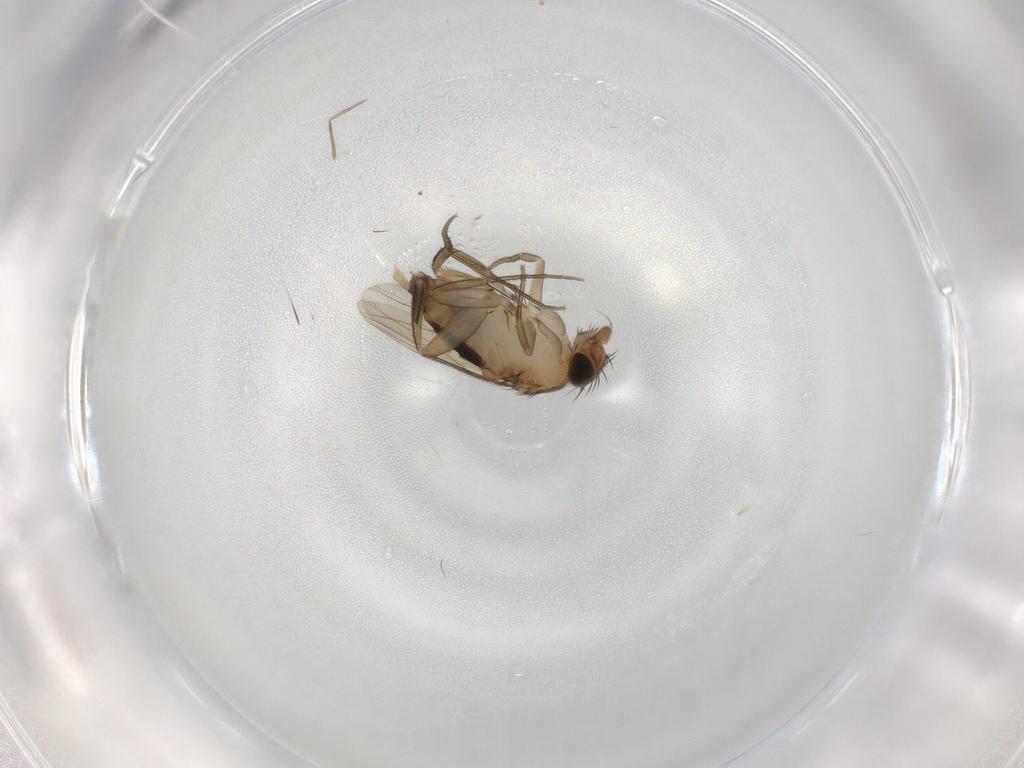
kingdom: Animalia
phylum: Arthropoda
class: Insecta
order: Diptera
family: Phoridae
